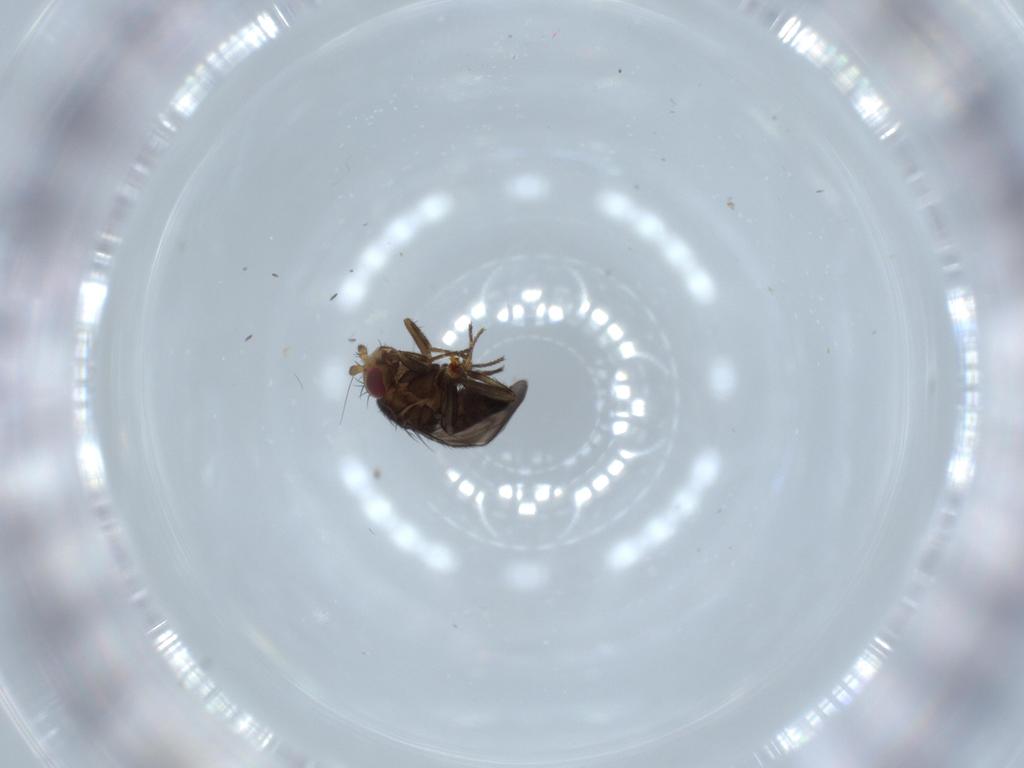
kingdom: Animalia
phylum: Arthropoda
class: Insecta
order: Diptera
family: Sphaeroceridae
